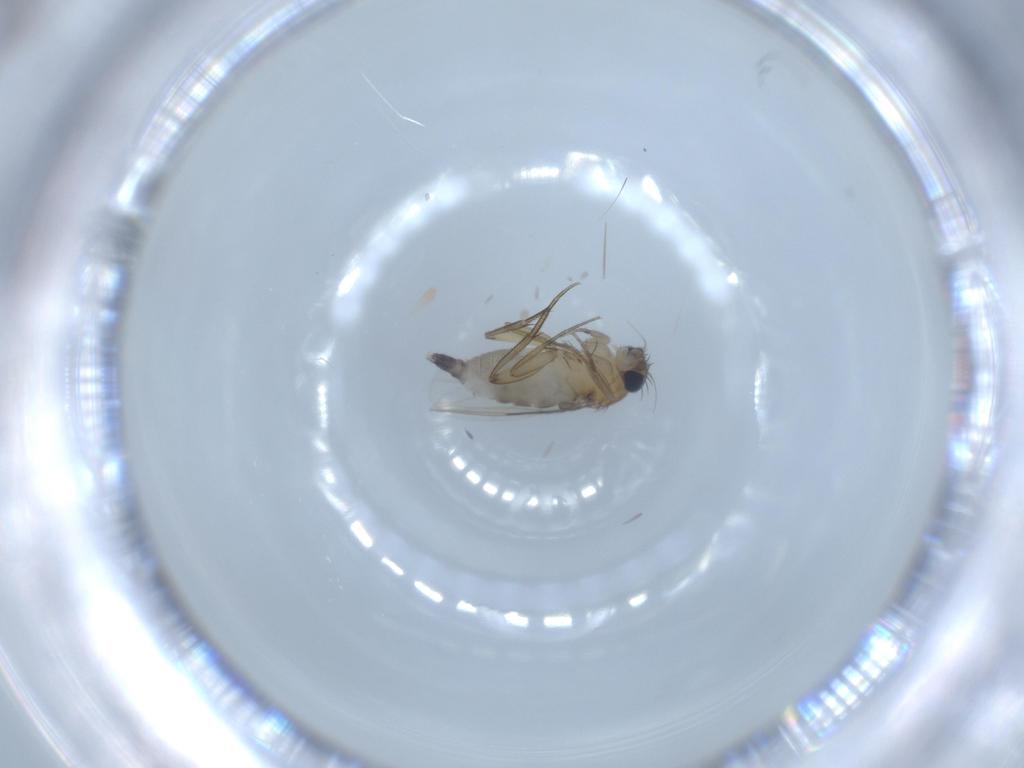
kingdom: Animalia
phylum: Arthropoda
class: Insecta
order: Diptera
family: Phoridae
